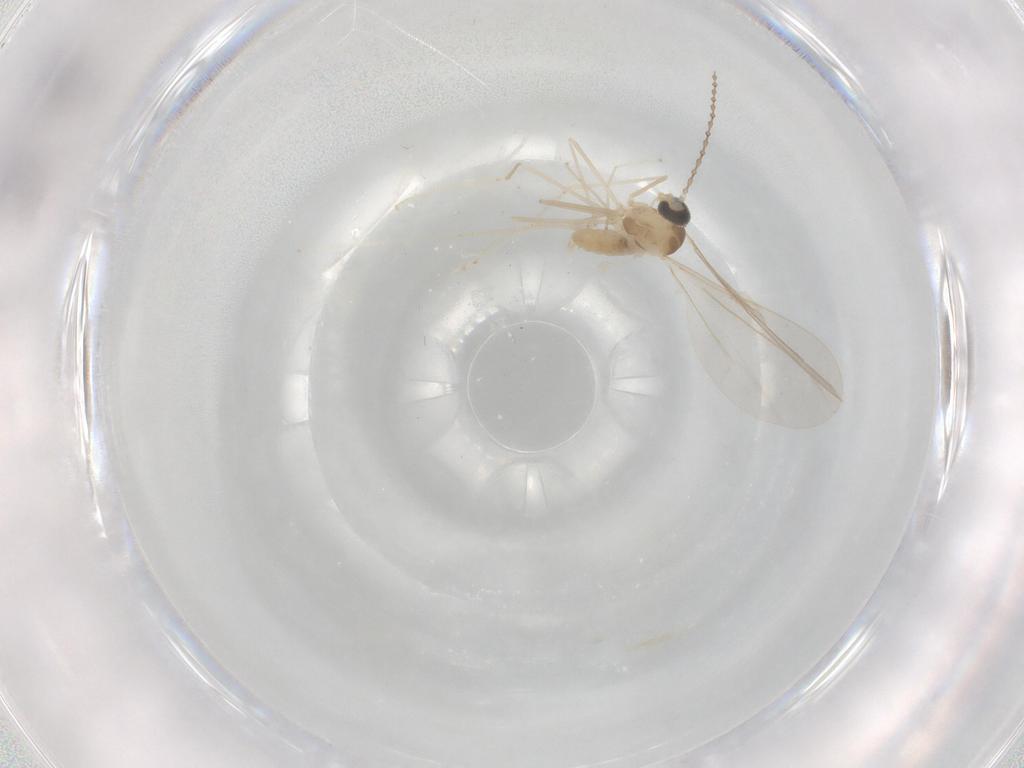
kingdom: Animalia
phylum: Arthropoda
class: Insecta
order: Diptera
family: Cecidomyiidae
